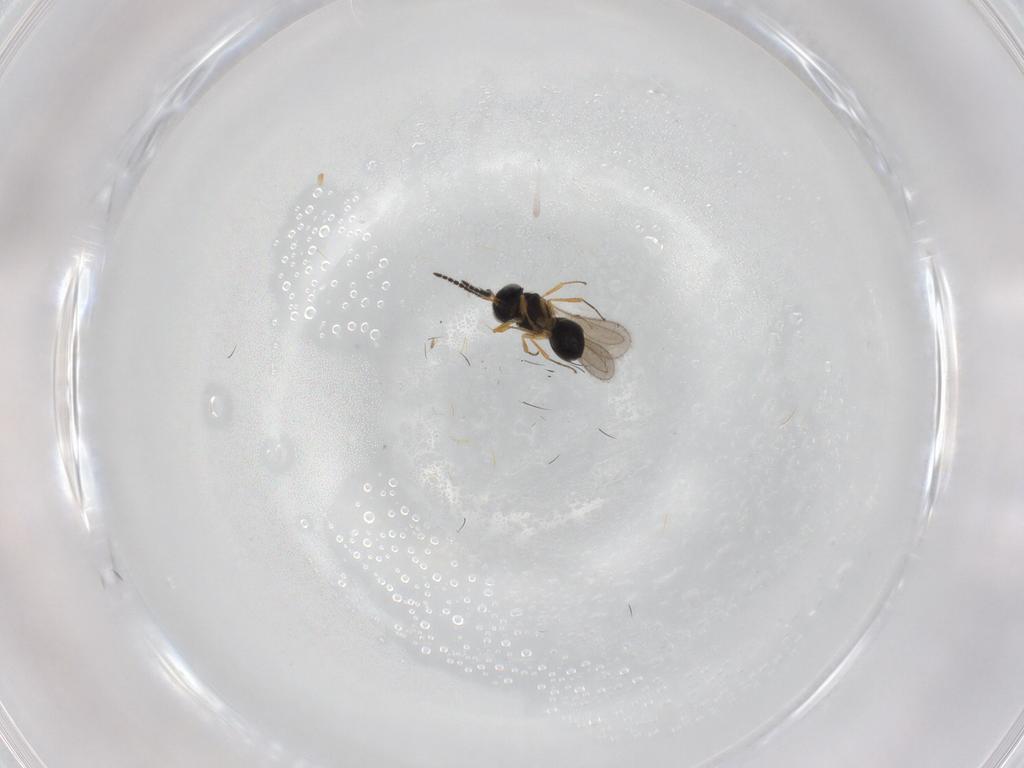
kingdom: Animalia
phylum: Arthropoda
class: Insecta
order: Hymenoptera
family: Scelionidae
